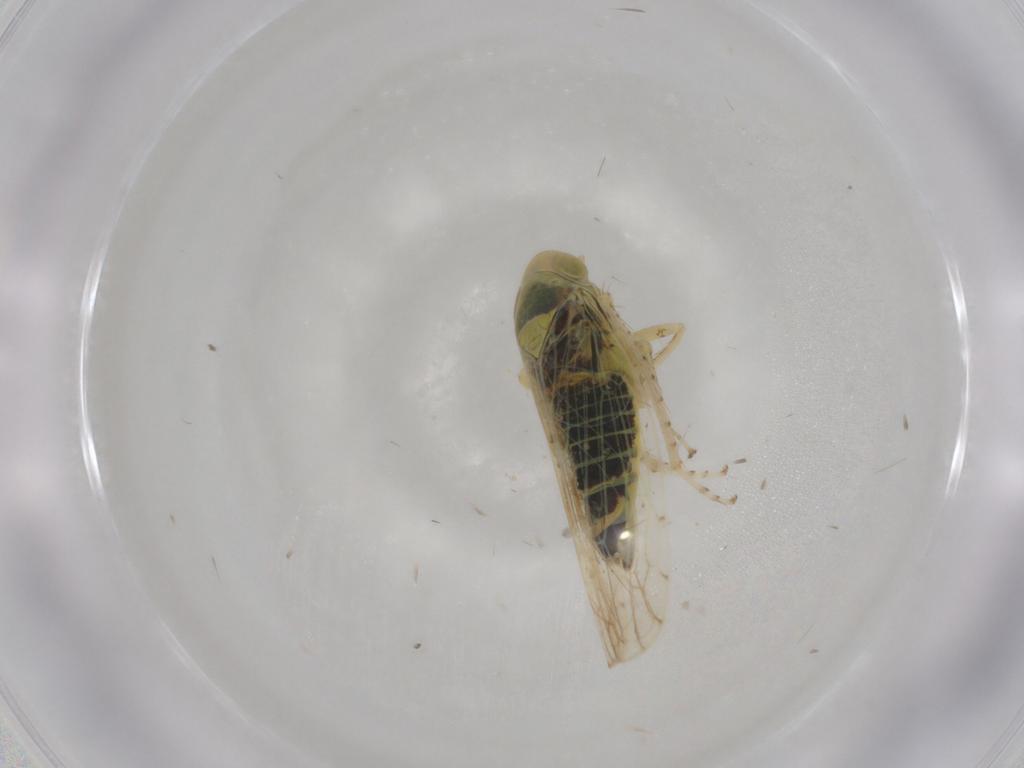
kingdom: Animalia
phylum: Arthropoda
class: Insecta
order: Hemiptera
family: Cicadellidae
